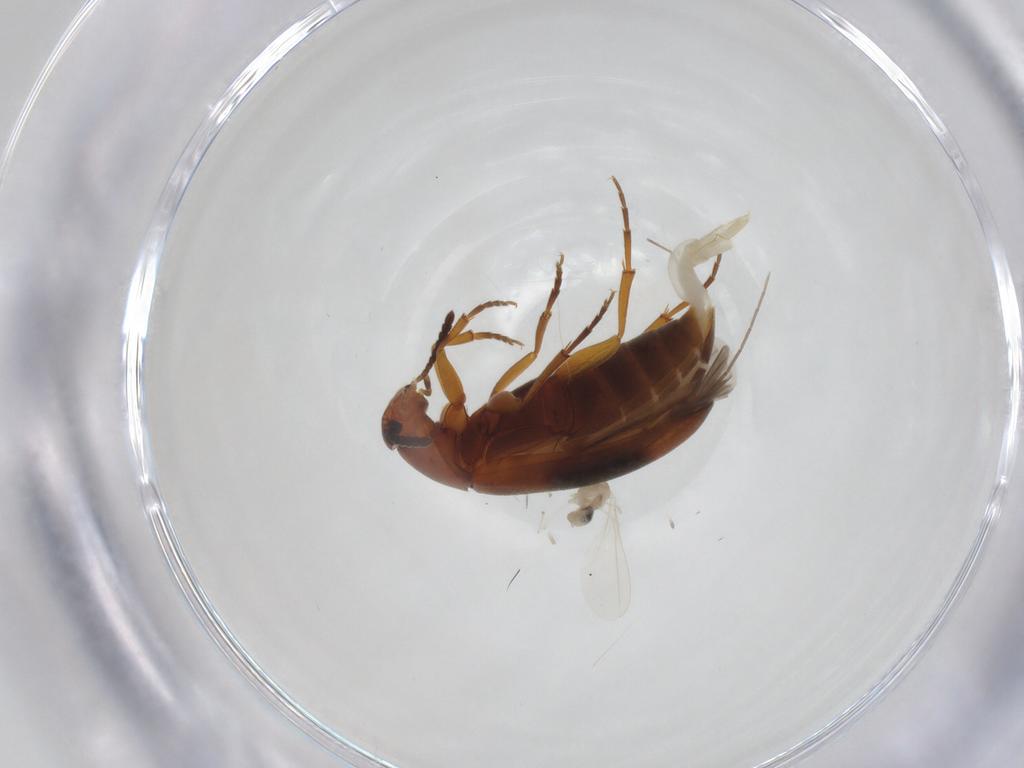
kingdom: Animalia
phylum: Arthropoda
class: Insecta
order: Coleoptera
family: Scraptiidae
